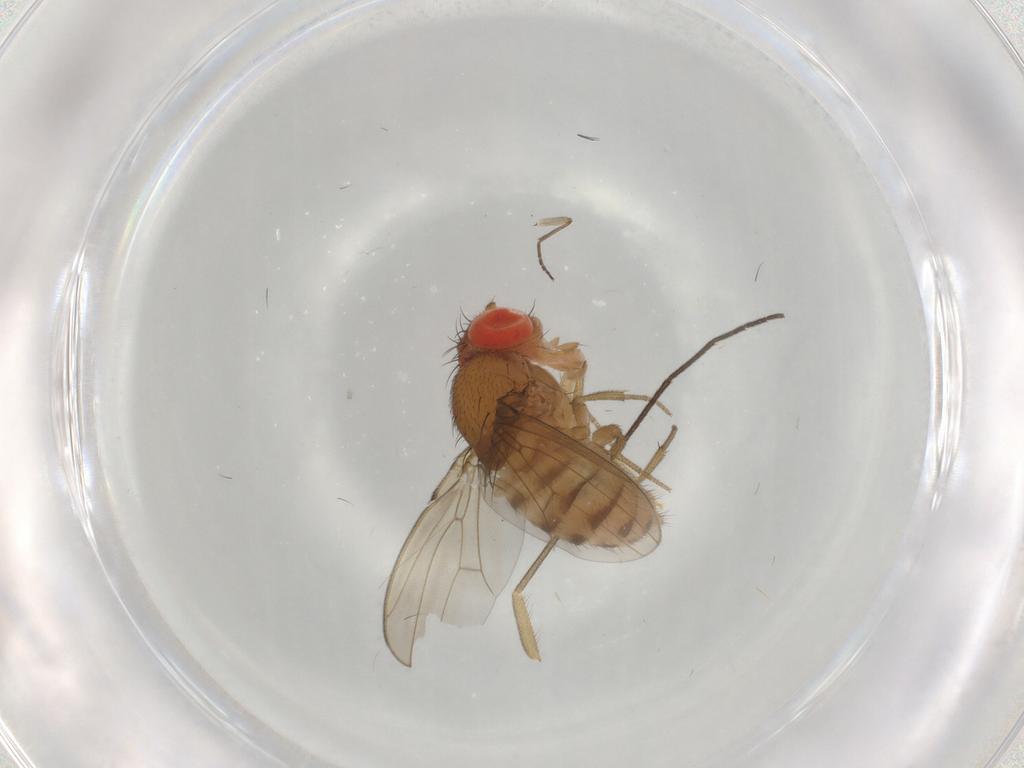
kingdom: Animalia
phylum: Arthropoda
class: Insecta
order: Diptera
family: Drosophilidae
